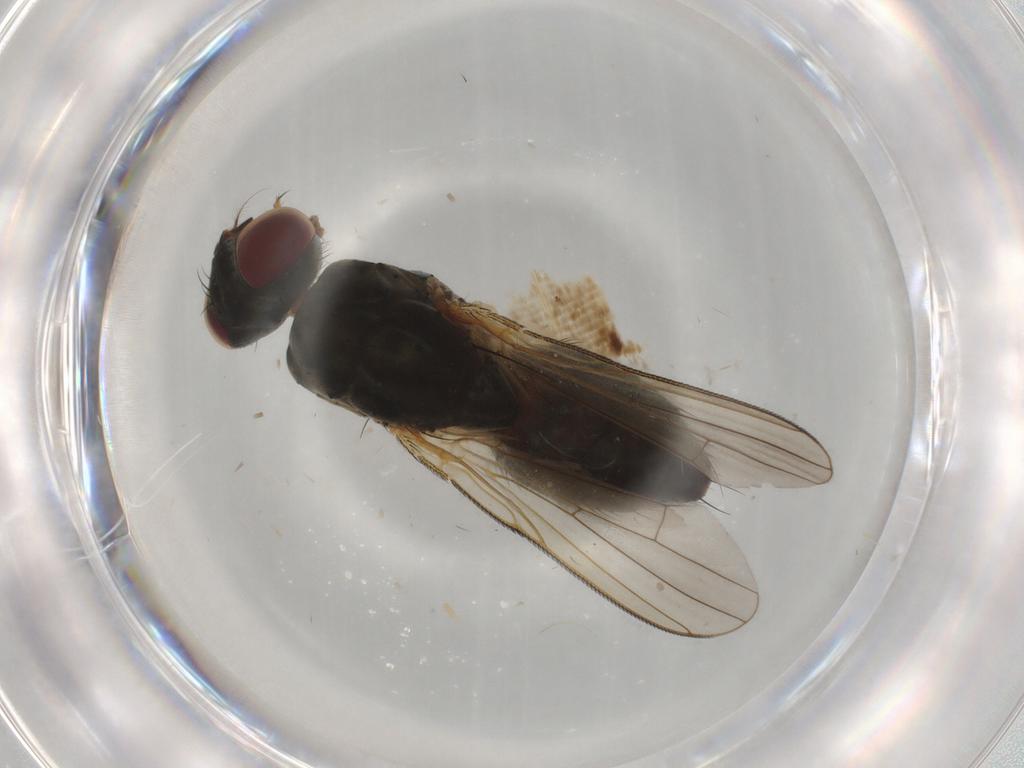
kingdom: Animalia
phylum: Arthropoda
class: Insecta
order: Diptera
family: Muscidae
